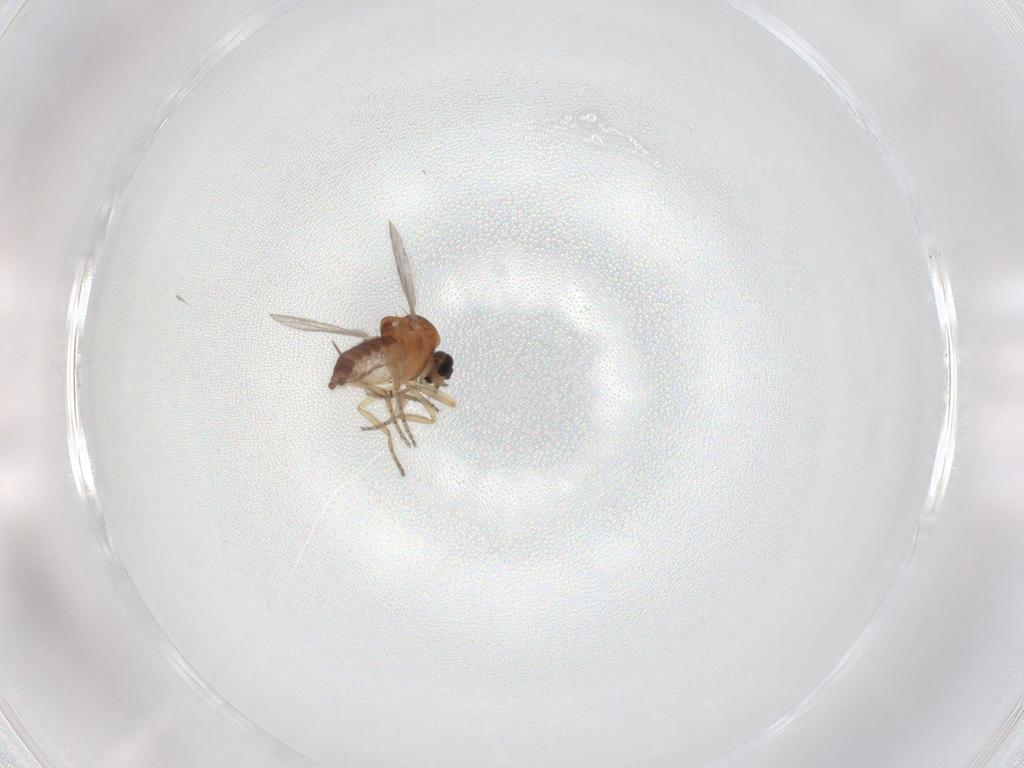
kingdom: Animalia
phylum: Arthropoda
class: Insecta
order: Diptera
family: Ceratopogonidae
